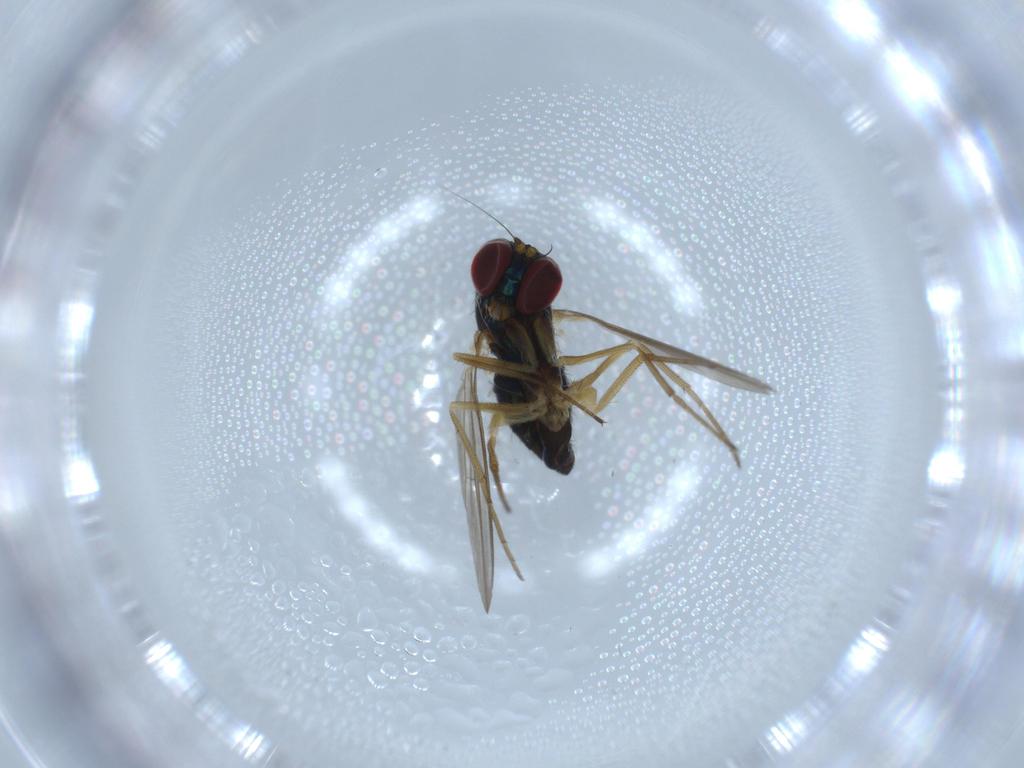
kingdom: Animalia
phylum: Arthropoda
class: Insecta
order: Diptera
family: Dolichopodidae
